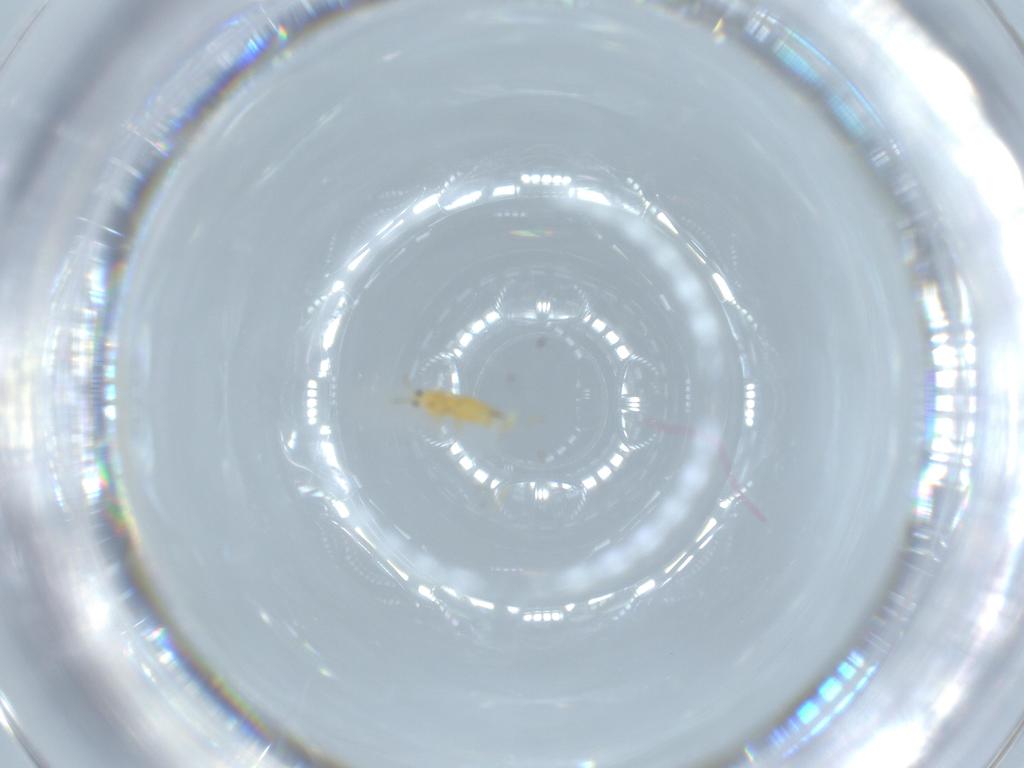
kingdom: Animalia
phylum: Arthropoda
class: Insecta
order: Thysanoptera
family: Thripidae
